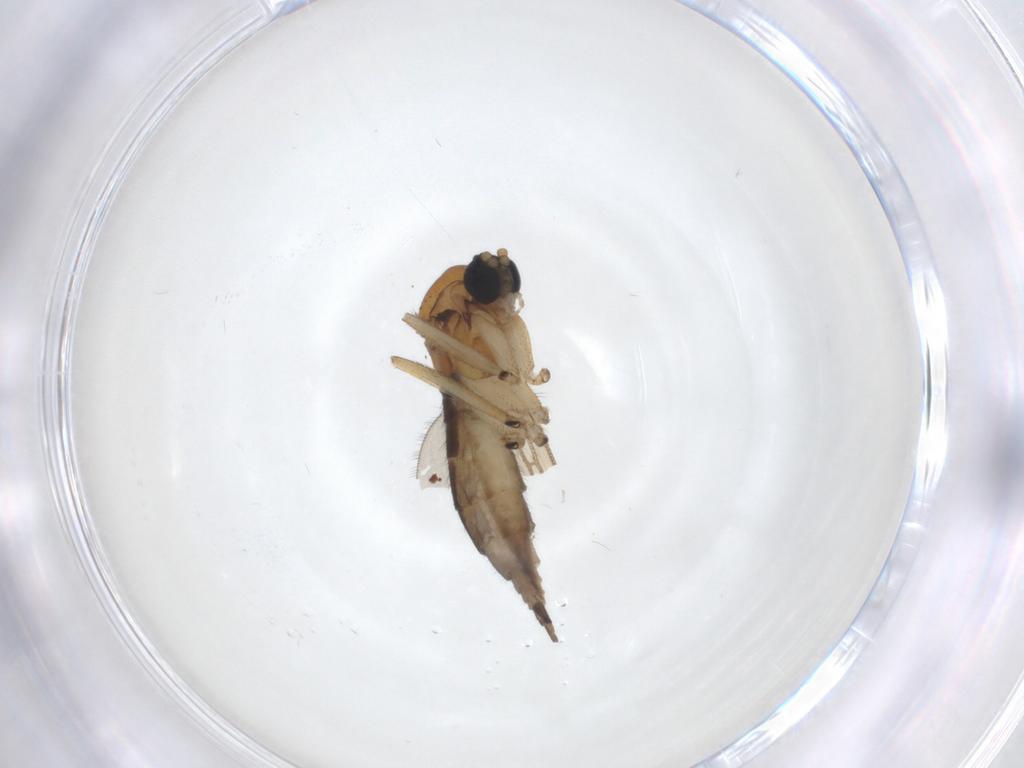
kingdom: Animalia
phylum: Arthropoda
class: Insecta
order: Diptera
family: Sciaridae
